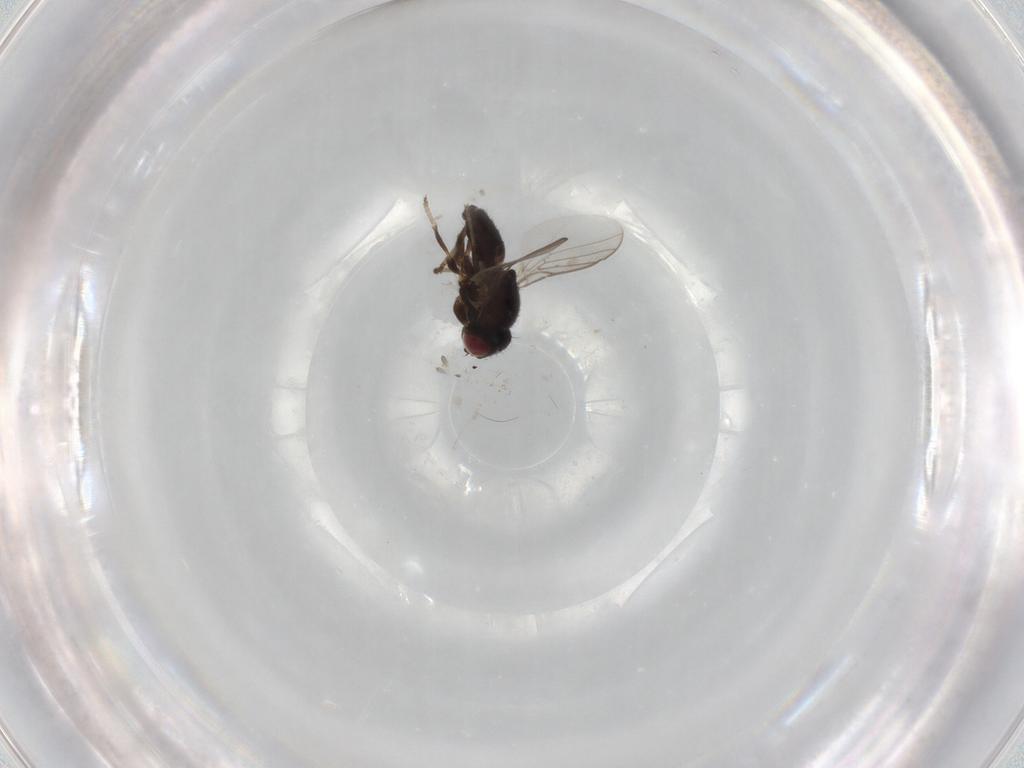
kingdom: Animalia
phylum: Arthropoda
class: Insecta
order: Diptera
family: Chloropidae
